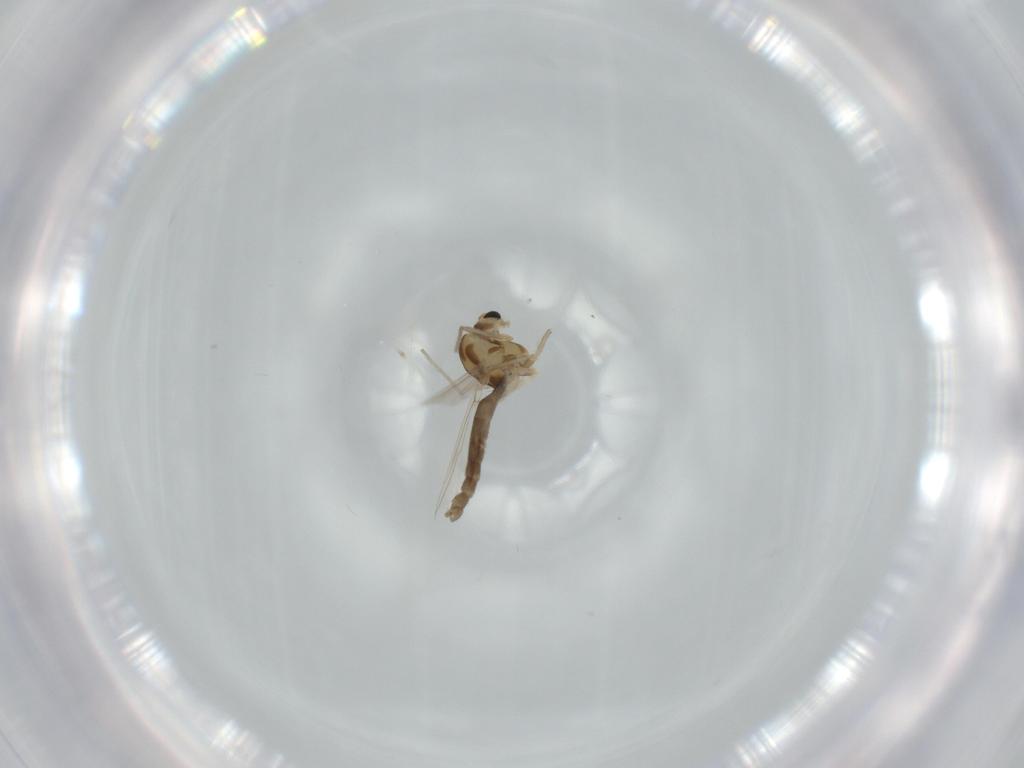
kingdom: Animalia
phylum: Arthropoda
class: Insecta
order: Diptera
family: Chironomidae
